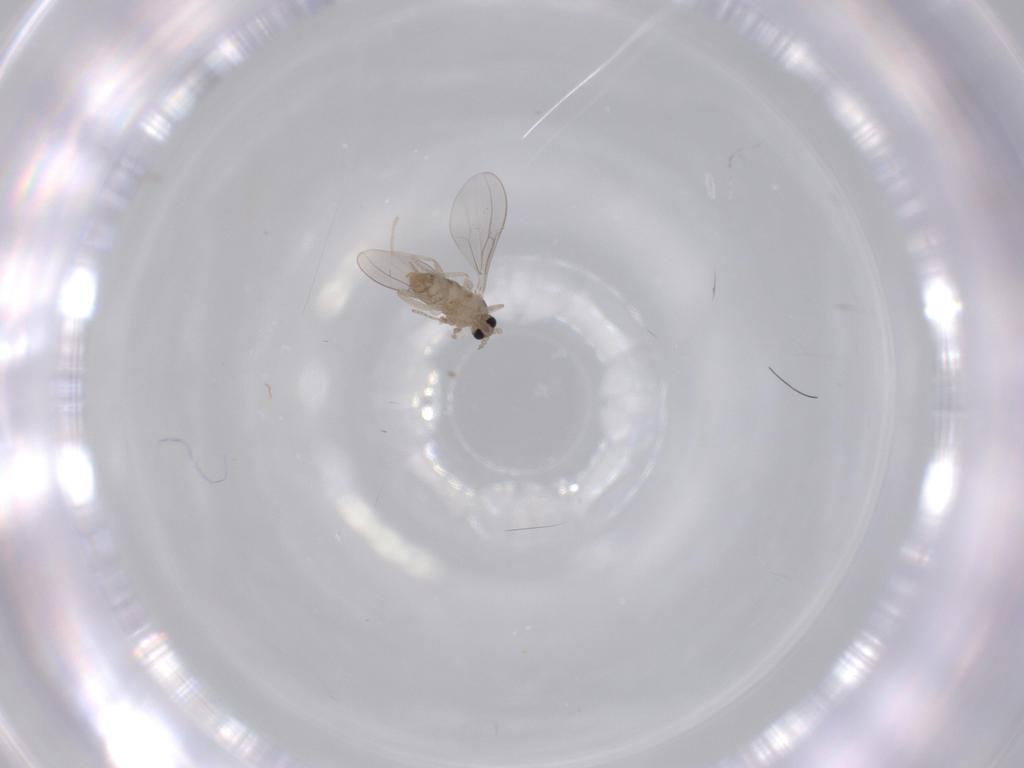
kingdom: Animalia
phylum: Arthropoda
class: Insecta
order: Diptera
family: Cecidomyiidae
